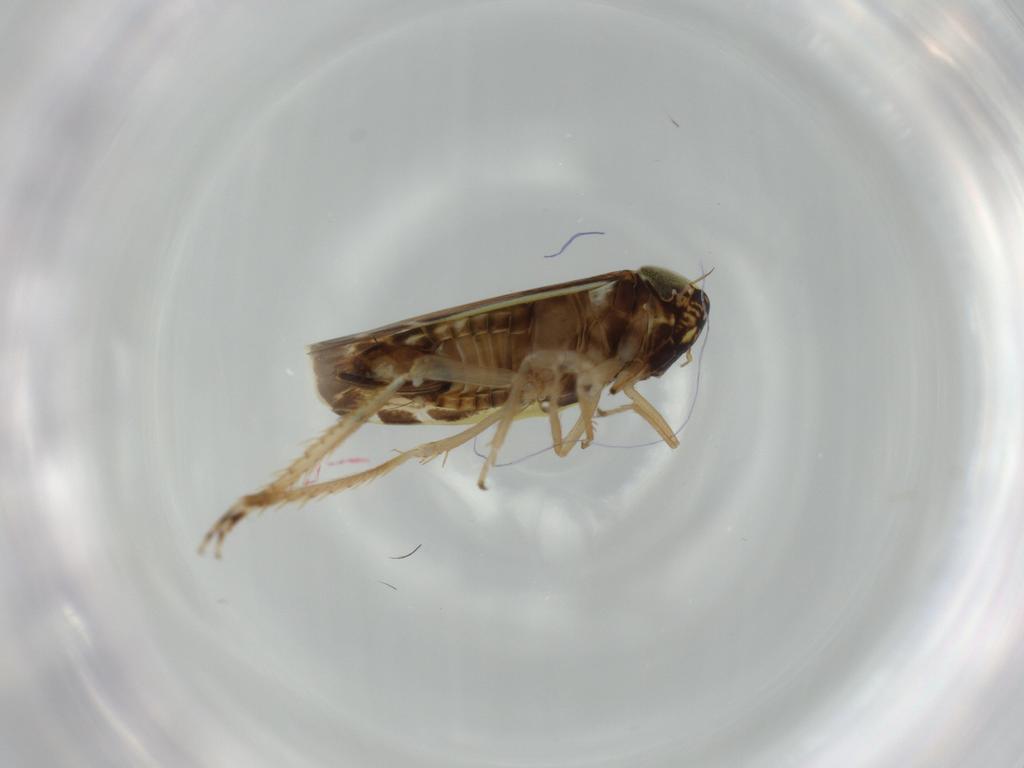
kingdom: Animalia
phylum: Arthropoda
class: Insecta
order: Hemiptera
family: Cicadellidae
